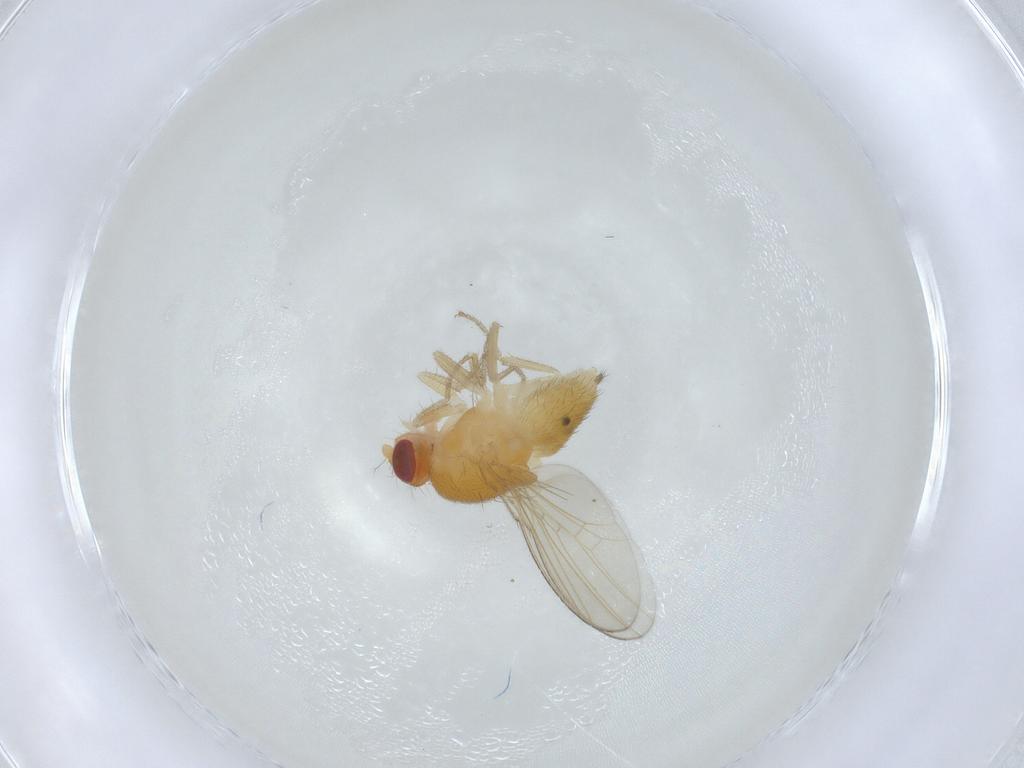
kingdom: Animalia
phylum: Arthropoda
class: Insecta
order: Diptera
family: Drosophilidae
